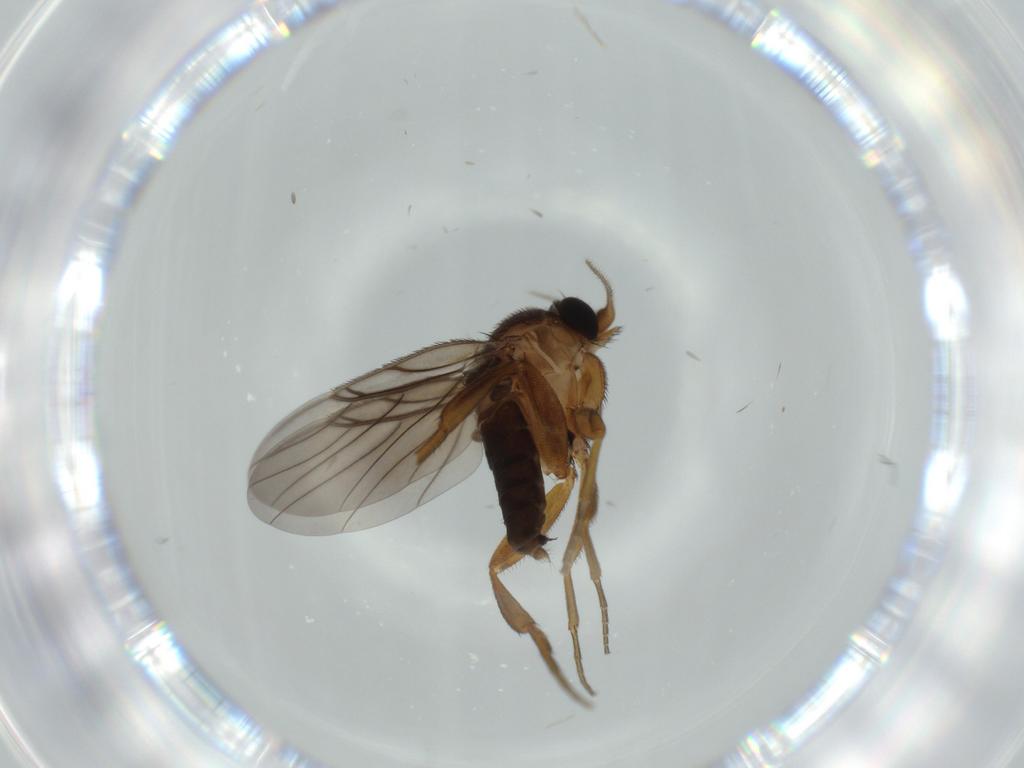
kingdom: Animalia
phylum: Arthropoda
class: Insecta
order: Diptera
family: Phoridae
